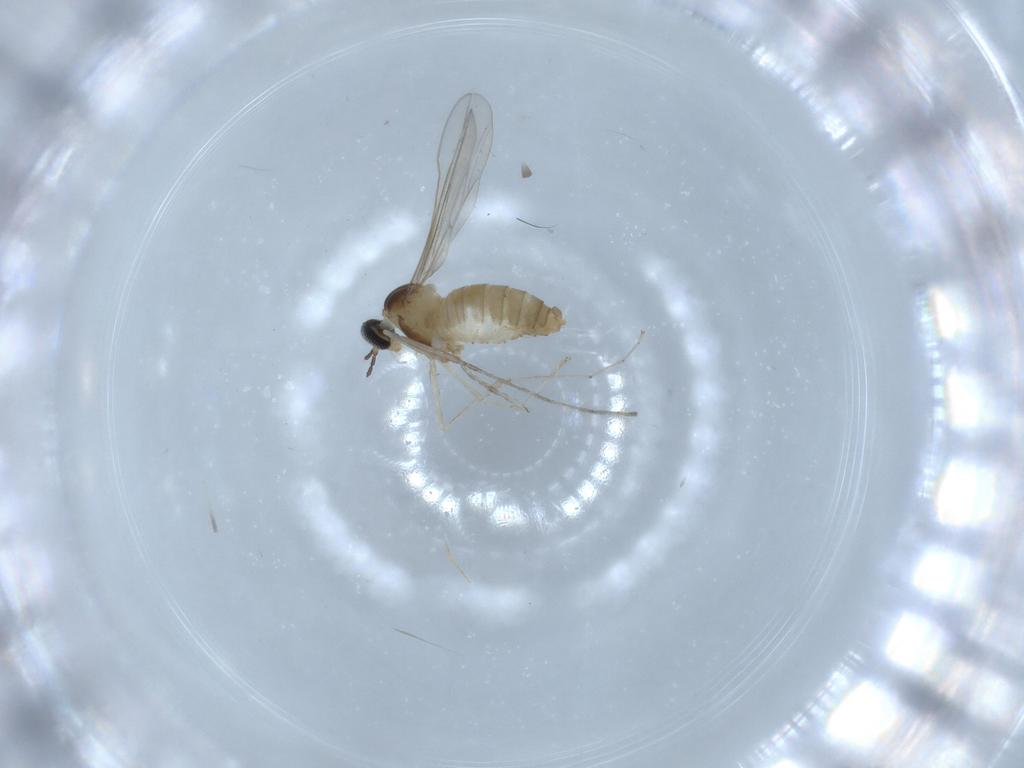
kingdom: Animalia
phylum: Arthropoda
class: Insecta
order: Diptera
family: Cecidomyiidae
